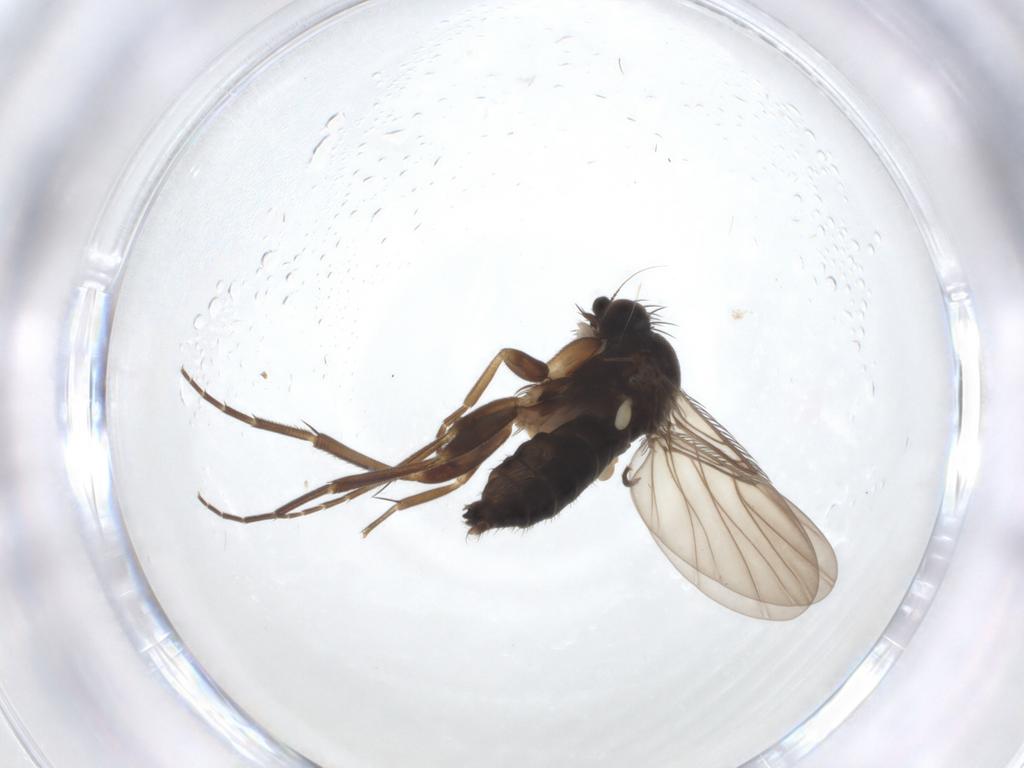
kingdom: Animalia
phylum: Arthropoda
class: Insecta
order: Diptera
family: Phoridae
